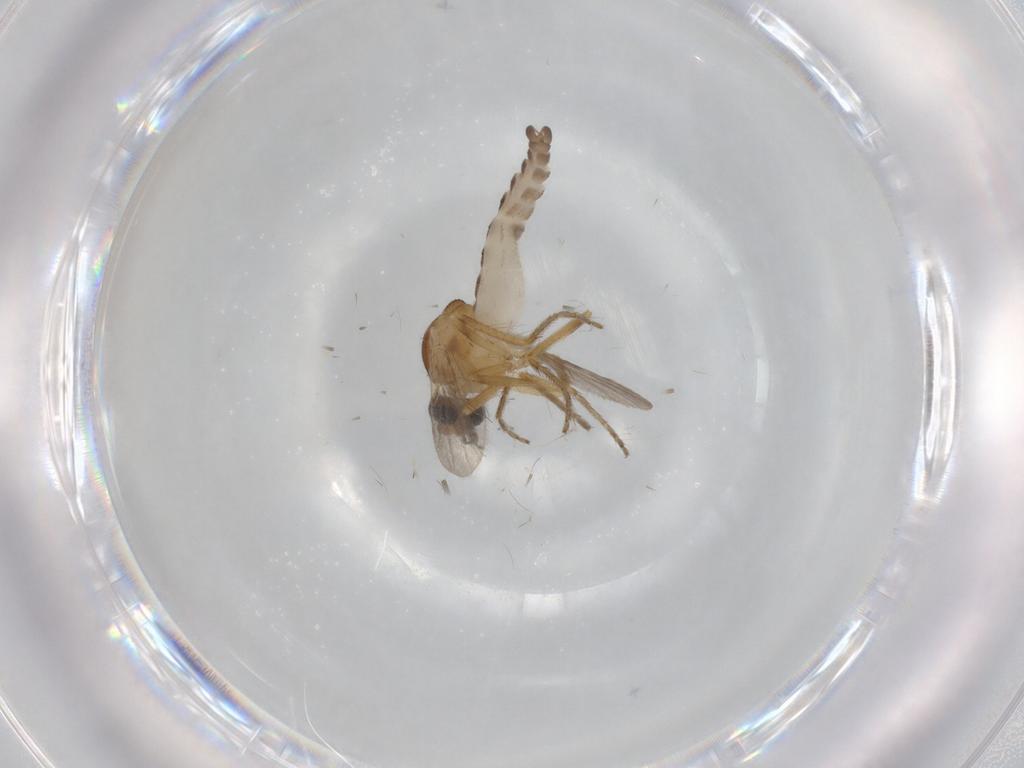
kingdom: Animalia
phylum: Arthropoda
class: Insecta
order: Diptera
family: Ceratopogonidae
